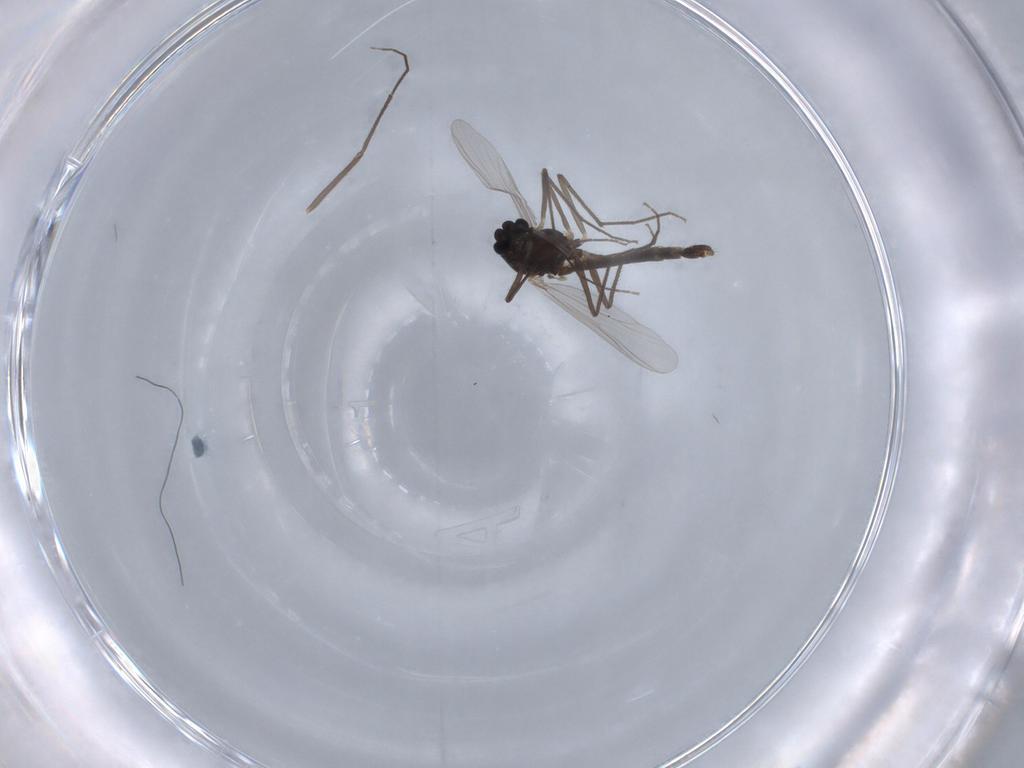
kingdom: Animalia
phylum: Arthropoda
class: Insecta
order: Diptera
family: Chironomidae
